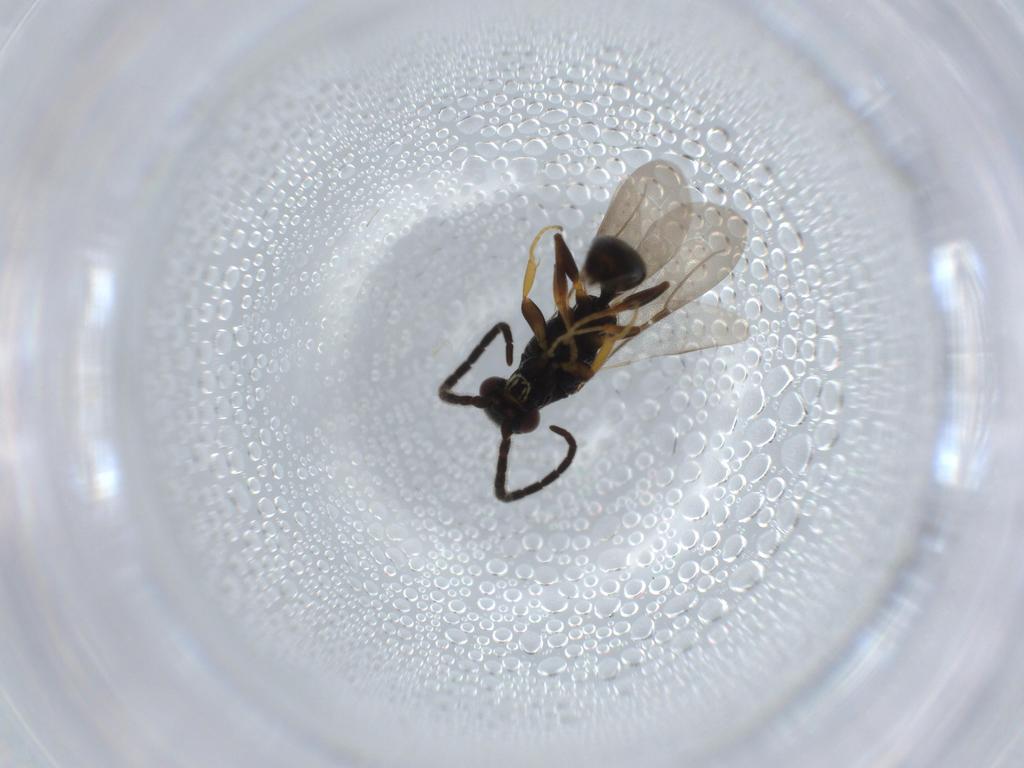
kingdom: Animalia
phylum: Arthropoda
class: Insecta
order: Hymenoptera
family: Bethylidae
